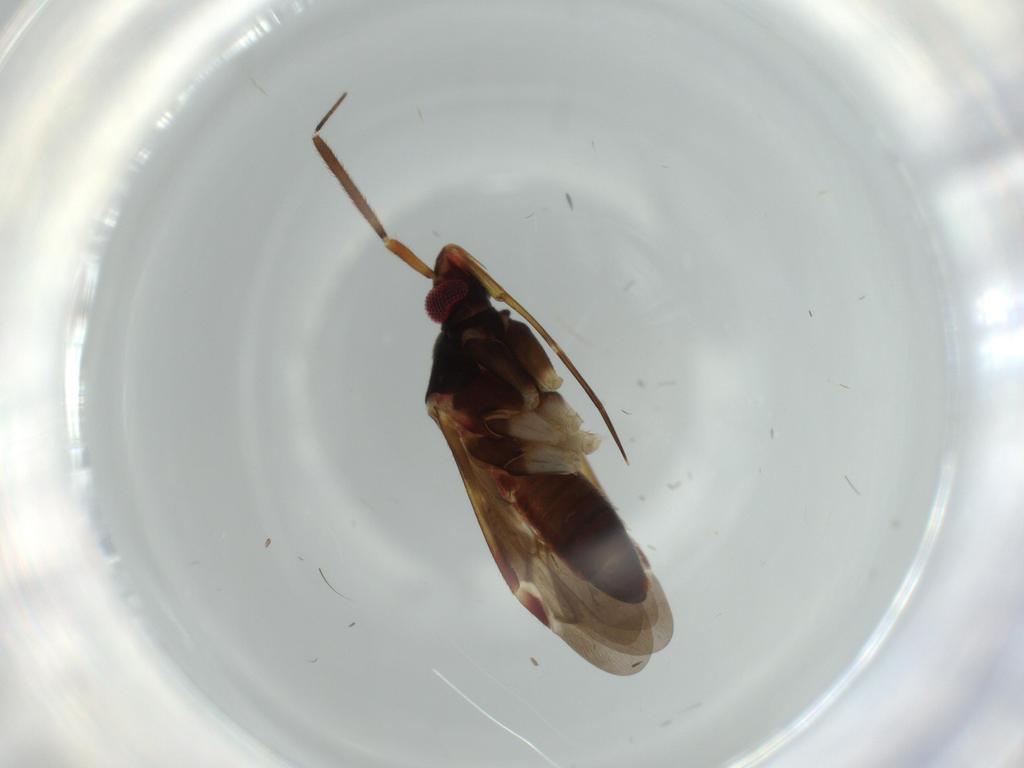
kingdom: Animalia
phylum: Arthropoda
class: Insecta
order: Hemiptera
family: Miridae
